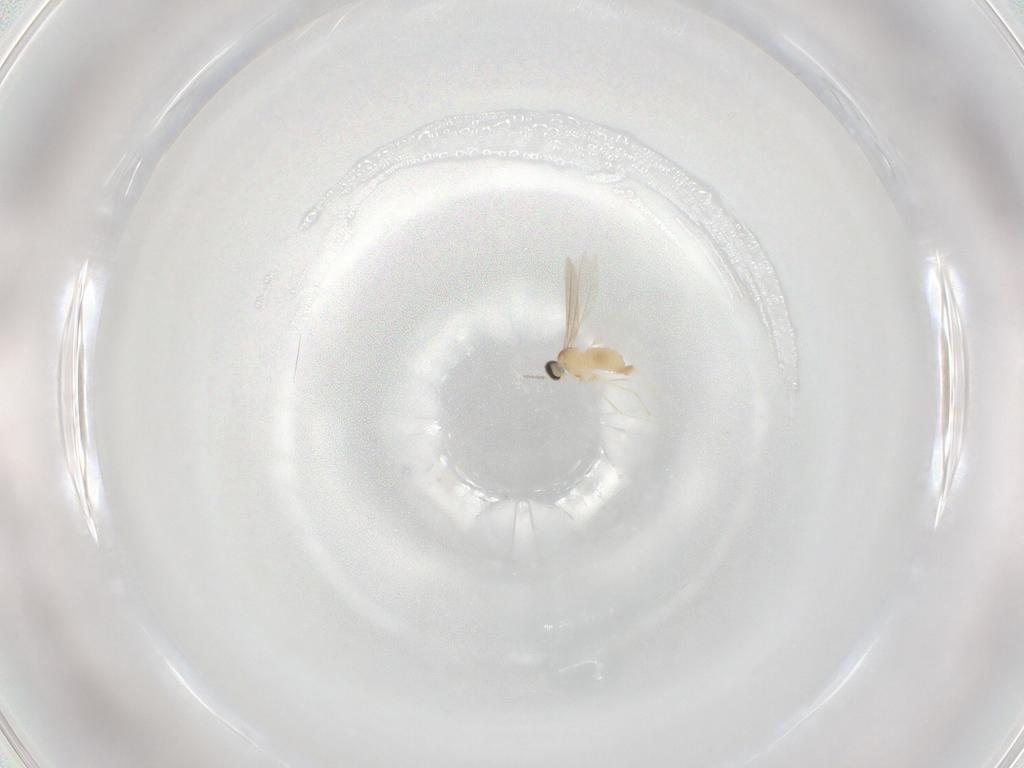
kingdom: Animalia
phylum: Arthropoda
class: Insecta
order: Diptera
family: Cecidomyiidae
